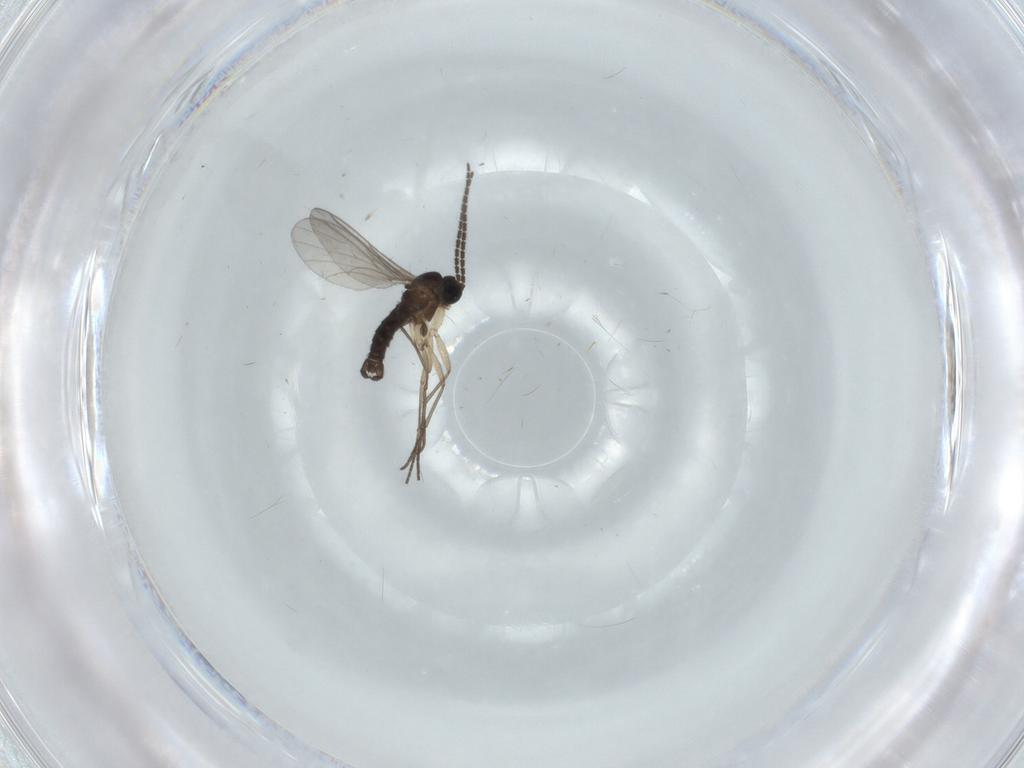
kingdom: Animalia
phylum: Arthropoda
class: Insecta
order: Diptera
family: Sciaridae
